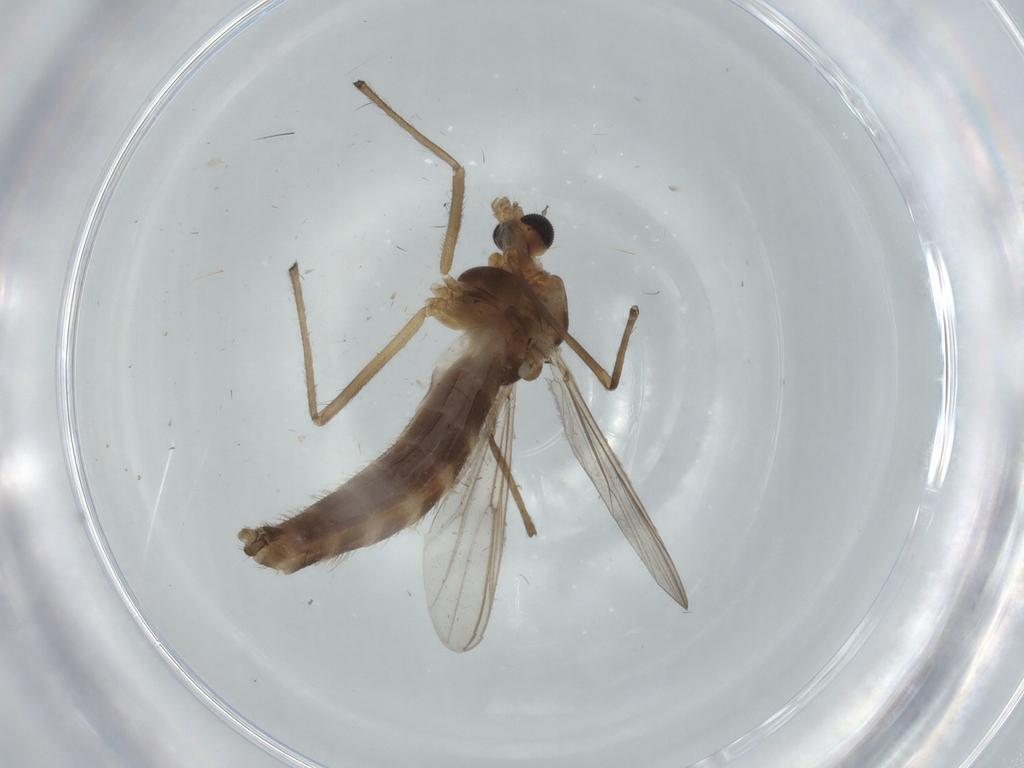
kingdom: Animalia
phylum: Arthropoda
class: Insecta
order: Diptera
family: Chironomidae
